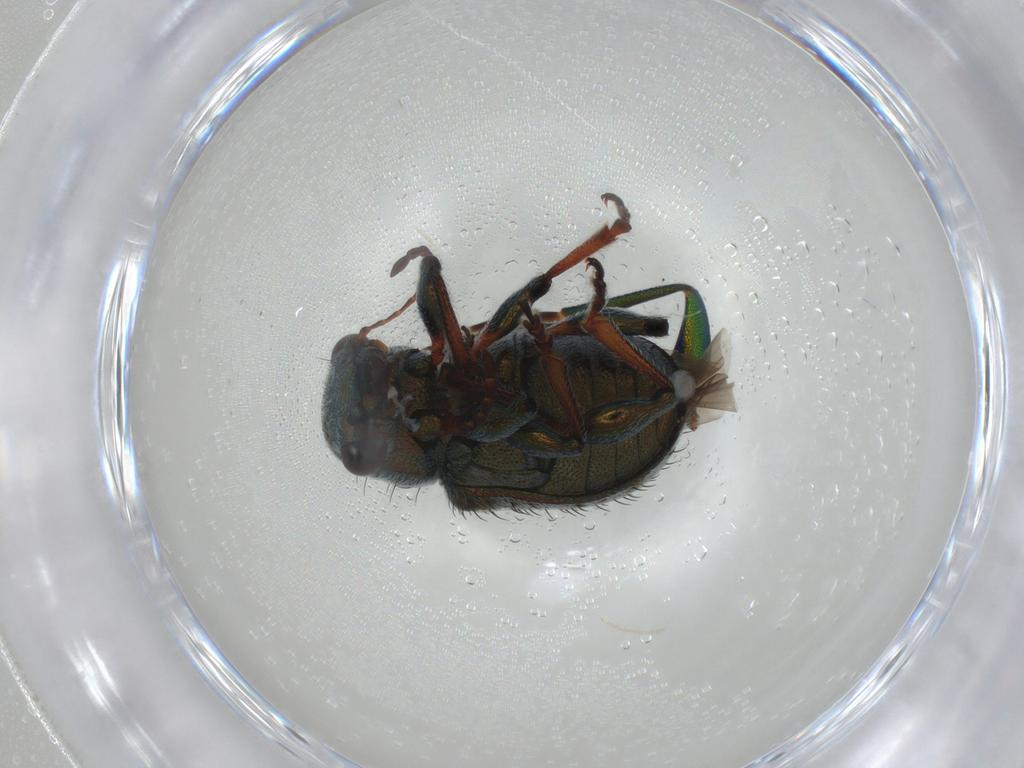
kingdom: Animalia
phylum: Arthropoda
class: Insecta
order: Coleoptera
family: Chrysomelidae
